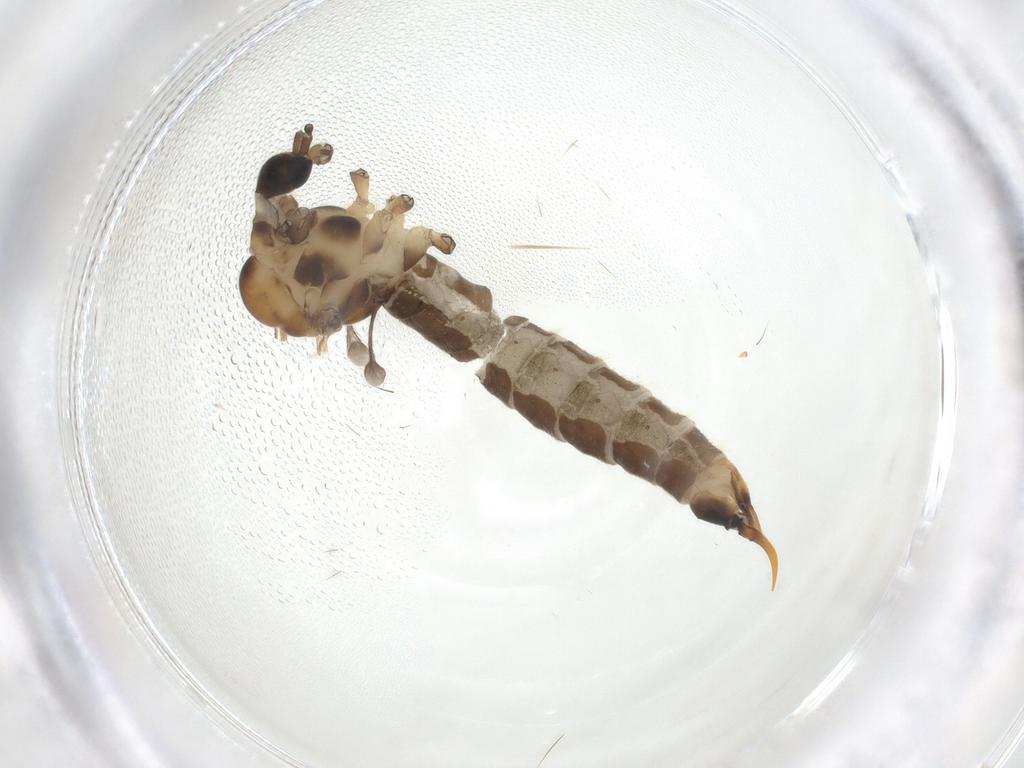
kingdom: Animalia
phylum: Arthropoda
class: Insecta
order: Diptera
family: Limoniidae
